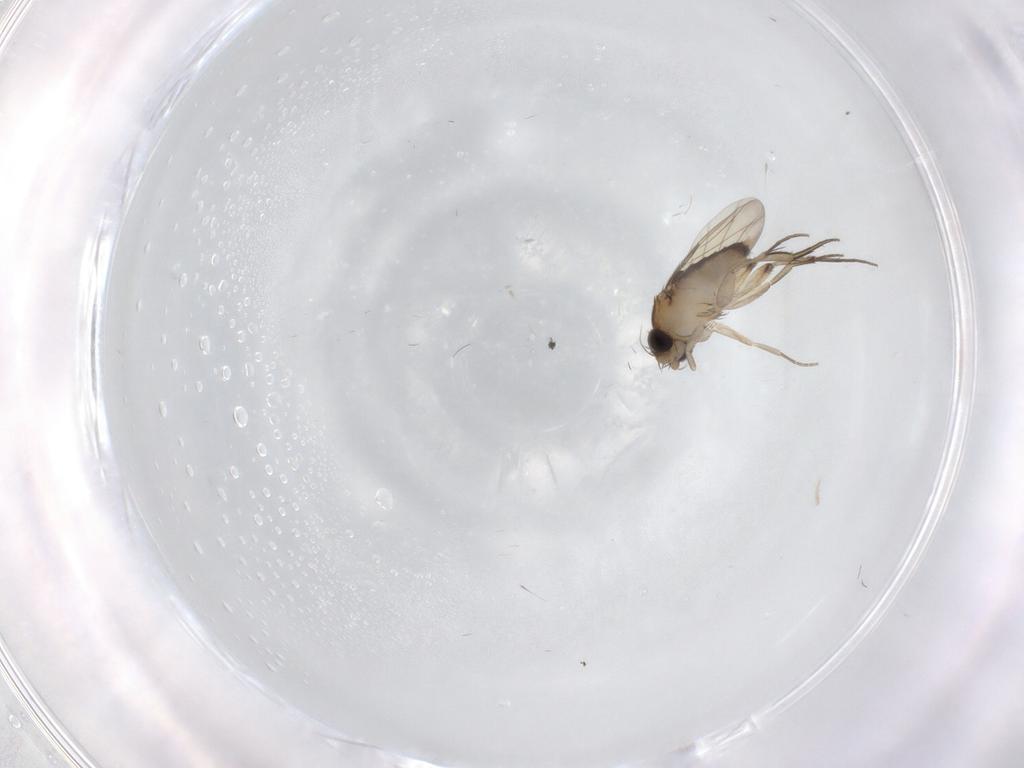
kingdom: Animalia
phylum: Arthropoda
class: Insecta
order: Diptera
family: Phoridae
